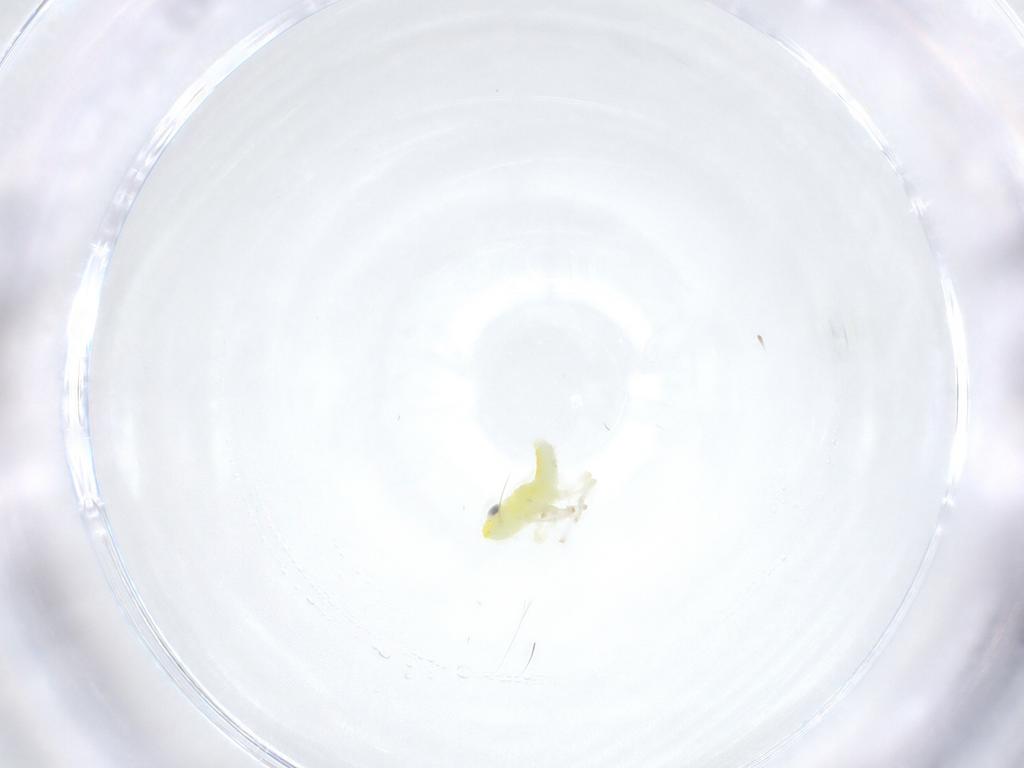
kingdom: Animalia
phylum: Arthropoda
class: Insecta
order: Hemiptera
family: Cicadellidae
